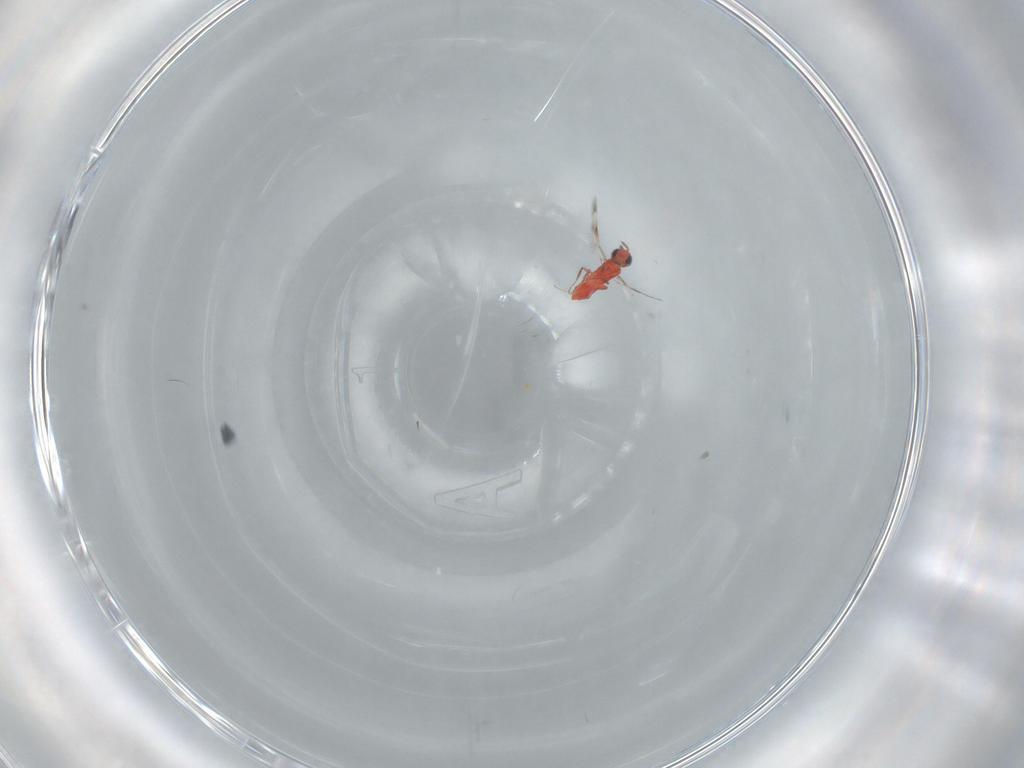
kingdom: Animalia
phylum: Arthropoda
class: Insecta
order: Hymenoptera
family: Trichogrammatidae
